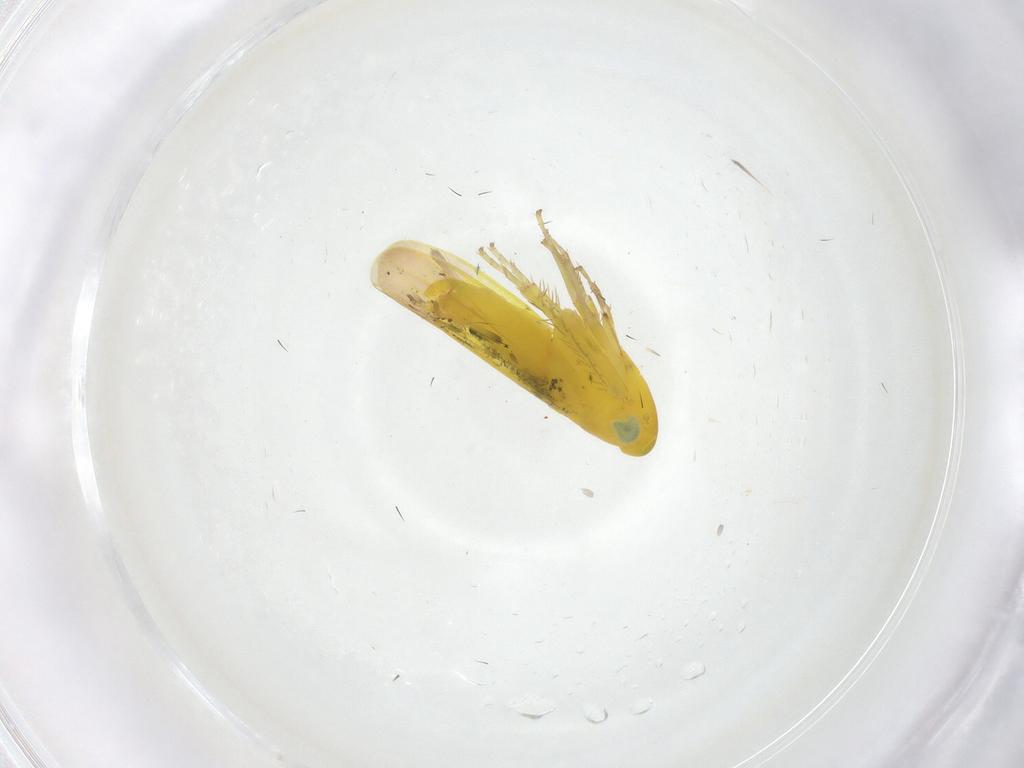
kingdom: Animalia
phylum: Arthropoda
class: Insecta
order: Hemiptera
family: Cicadellidae
